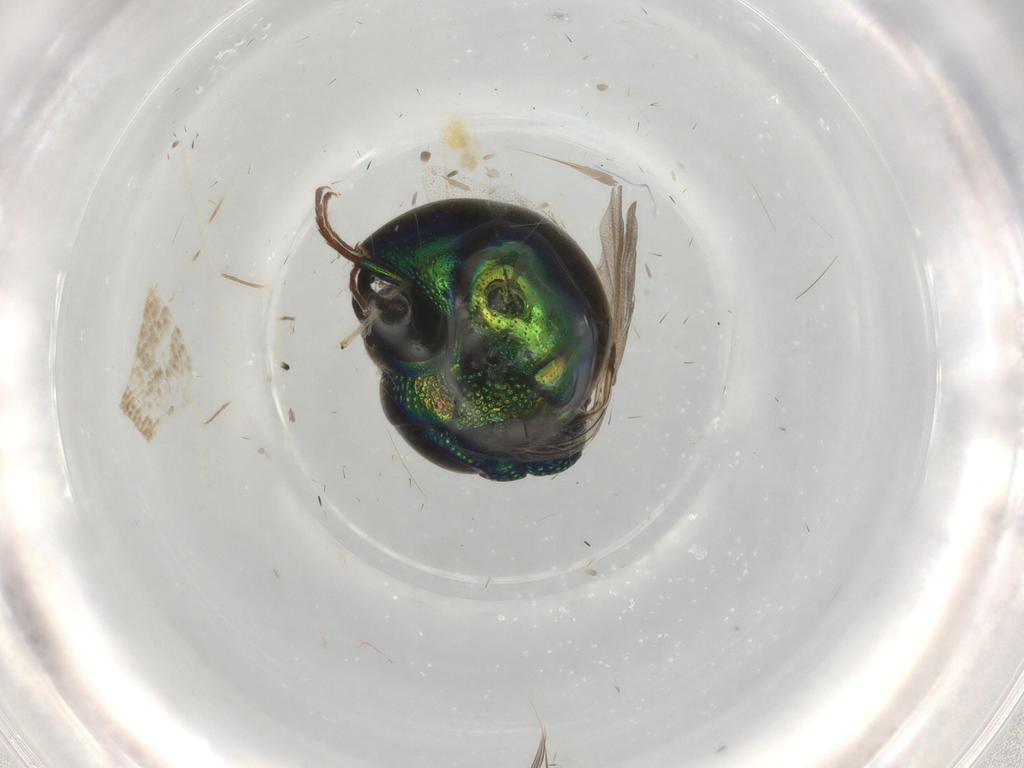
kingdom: Animalia
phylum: Arthropoda
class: Insecta
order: Hymenoptera
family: Chrysididae
